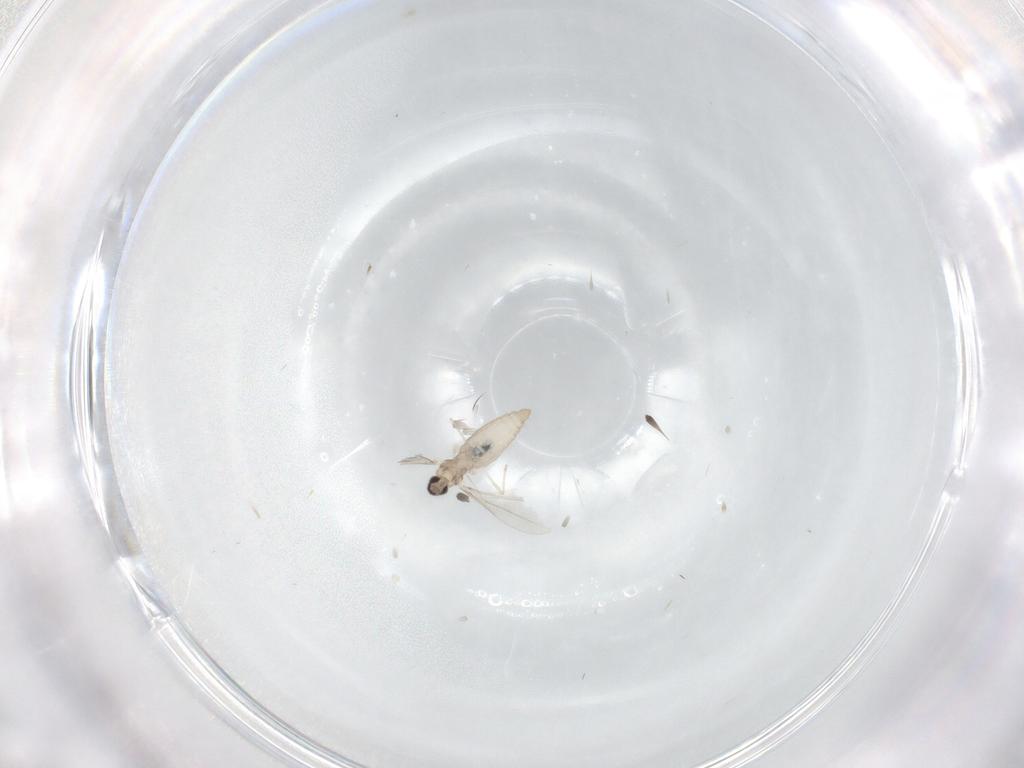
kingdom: Animalia
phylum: Arthropoda
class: Insecta
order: Diptera
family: Cecidomyiidae
